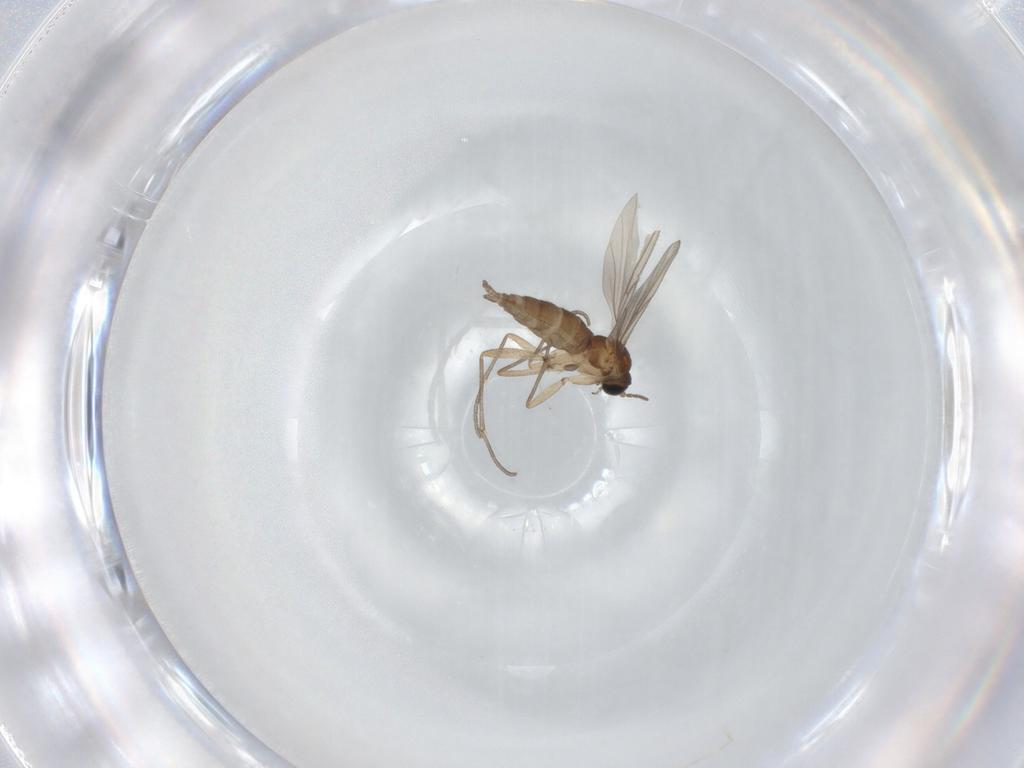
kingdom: Animalia
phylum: Arthropoda
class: Insecta
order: Diptera
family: Sciaridae
